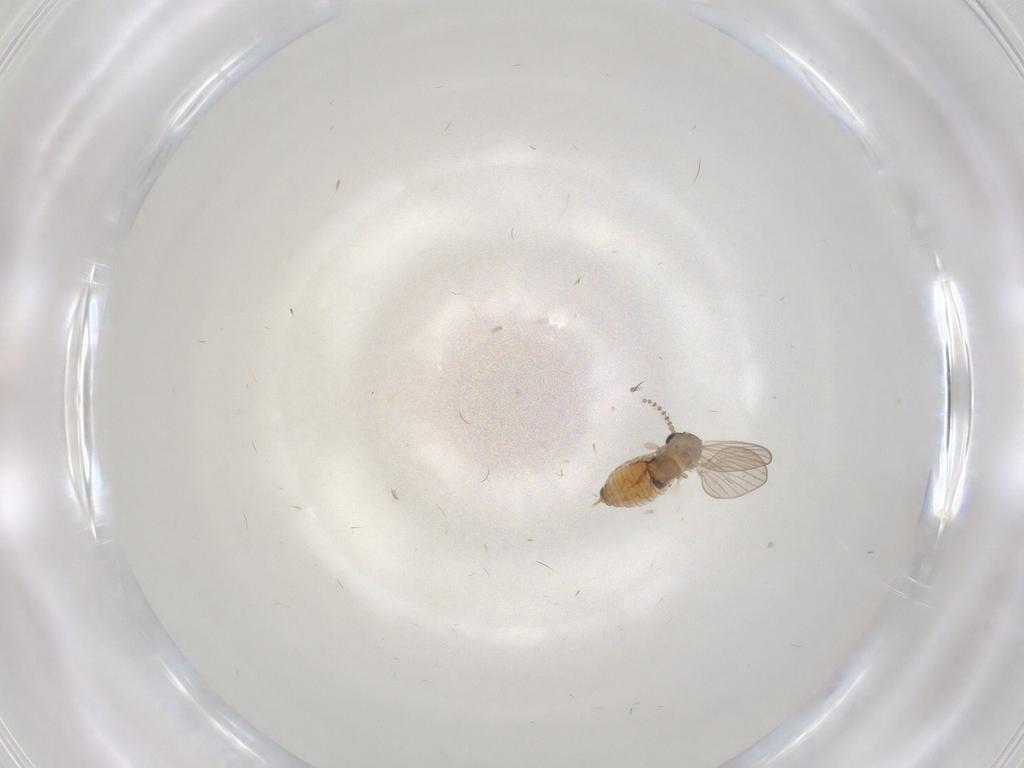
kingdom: Animalia
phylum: Arthropoda
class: Insecta
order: Diptera
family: Psychodidae
